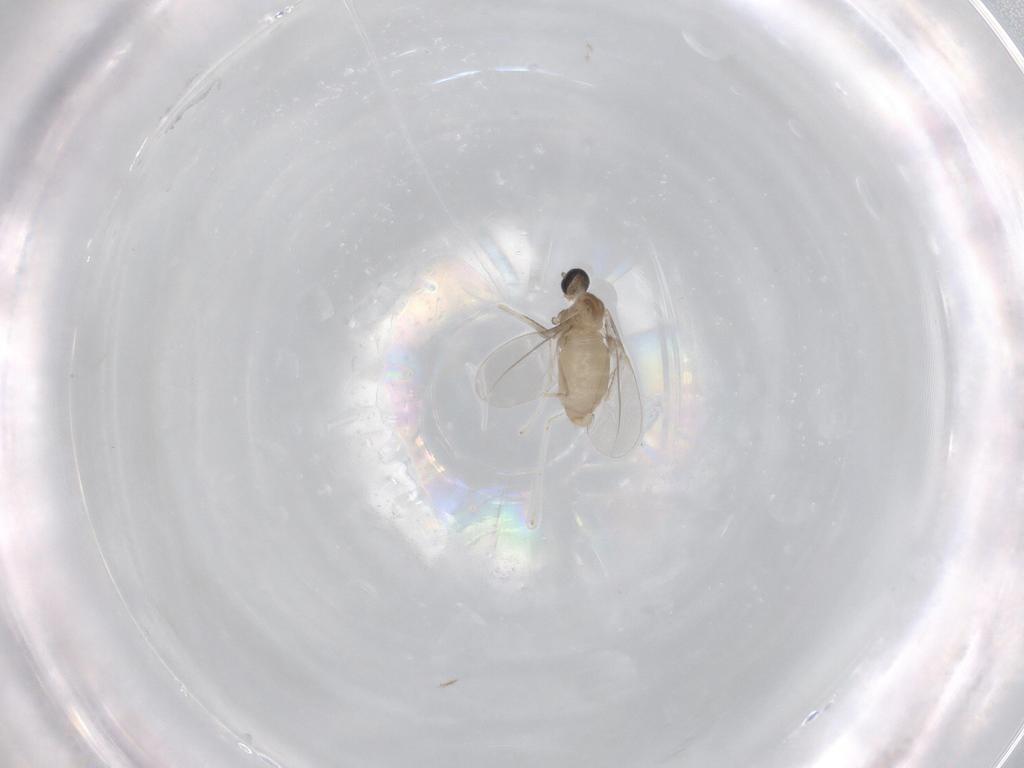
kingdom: Animalia
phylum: Arthropoda
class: Insecta
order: Diptera
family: Cecidomyiidae
